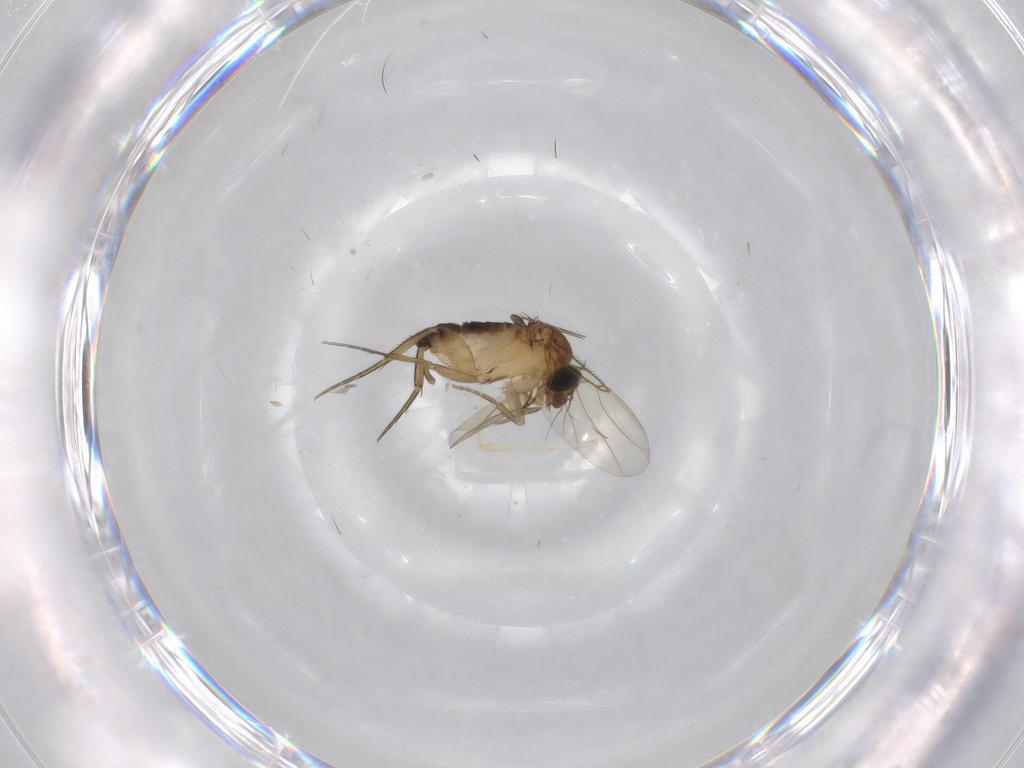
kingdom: Animalia
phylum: Arthropoda
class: Insecta
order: Diptera
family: Phoridae
